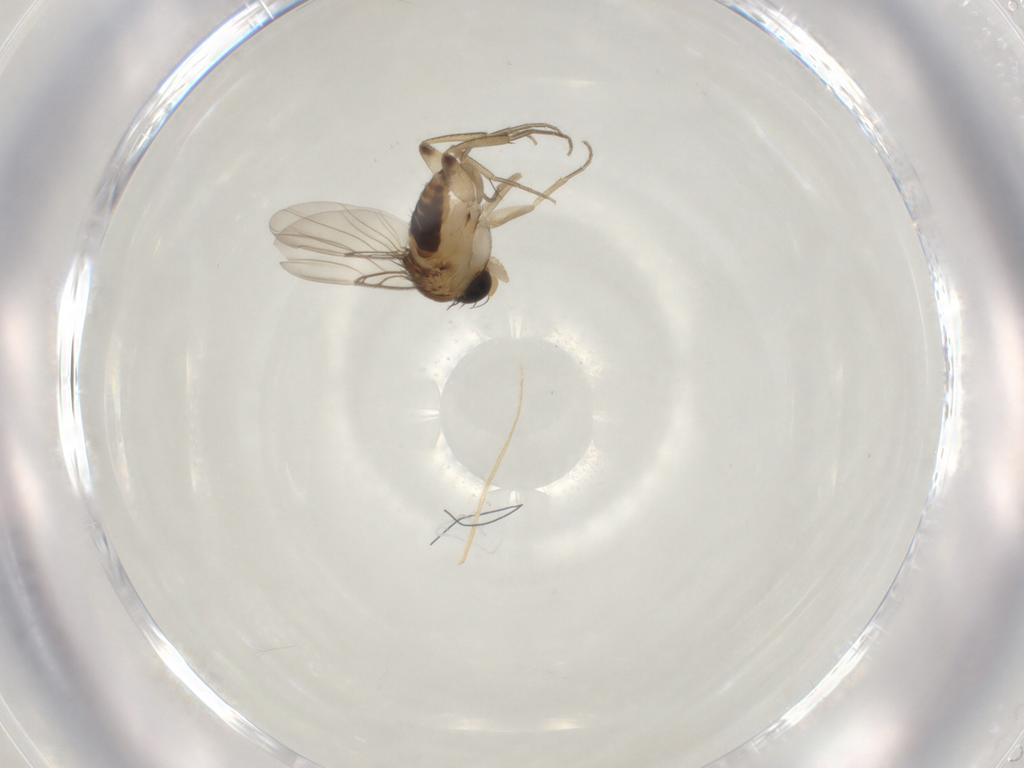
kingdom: Animalia
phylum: Arthropoda
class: Insecta
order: Diptera
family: Phoridae
